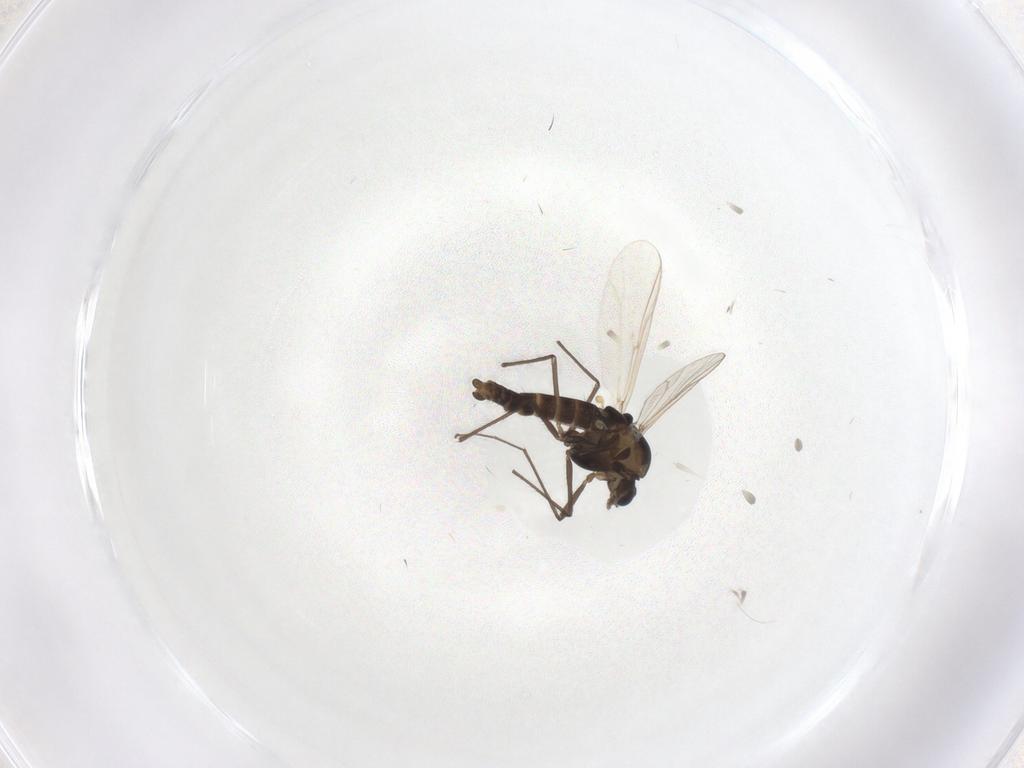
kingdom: Animalia
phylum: Arthropoda
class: Insecta
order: Diptera
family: Chironomidae
